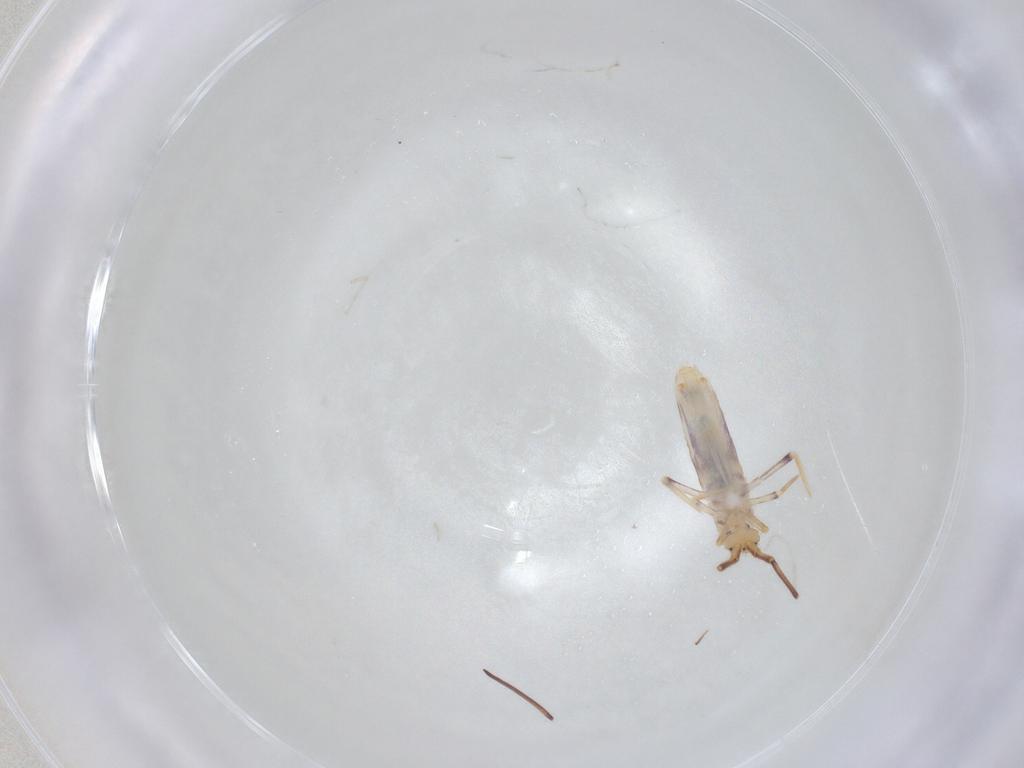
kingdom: Animalia
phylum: Arthropoda
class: Collembola
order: Poduromorpha
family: Hypogastruridae
